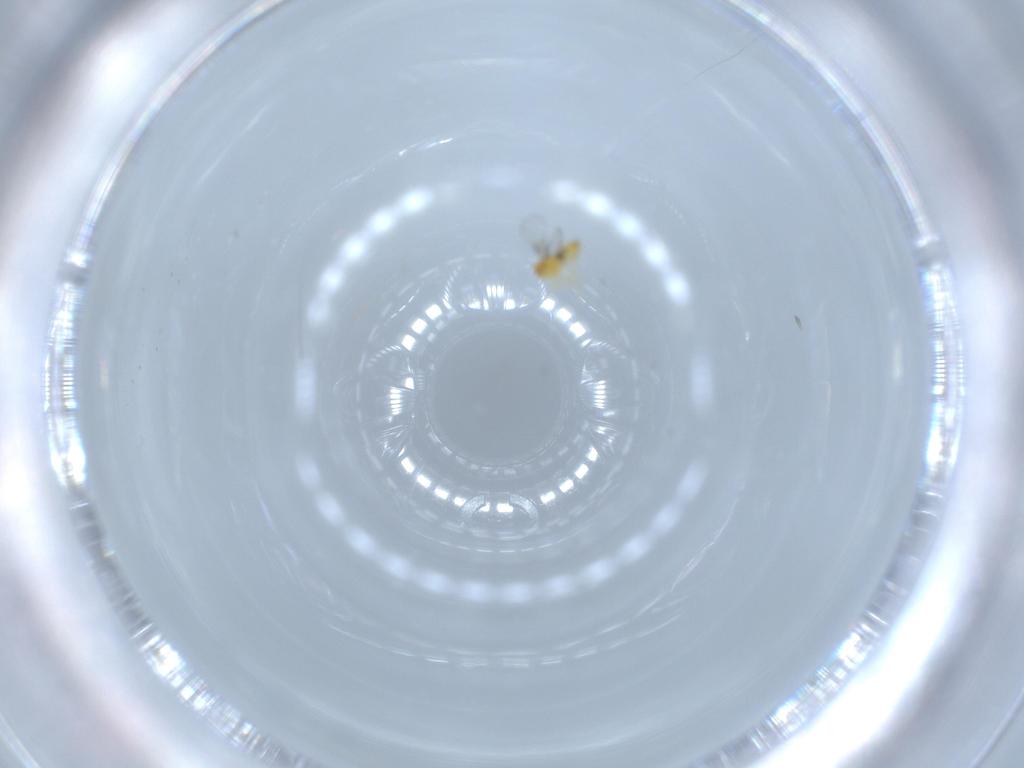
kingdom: Animalia
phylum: Arthropoda
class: Insecta
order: Hymenoptera
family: Trichogrammatidae
